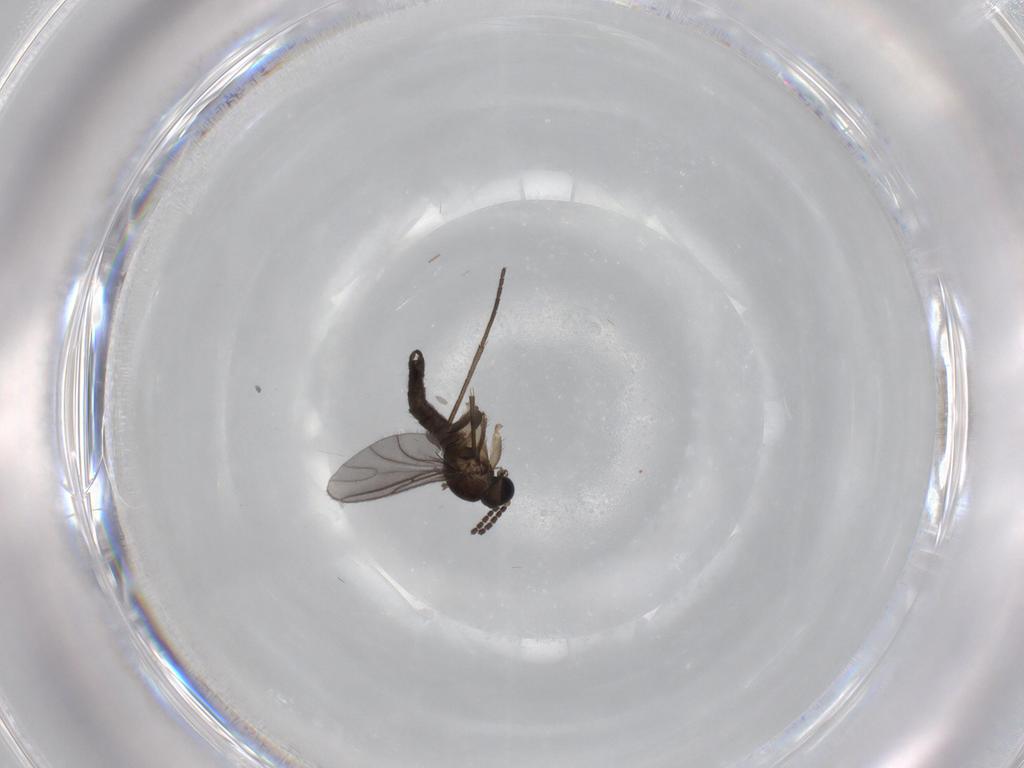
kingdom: Animalia
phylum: Arthropoda
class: Insecta
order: Diptera
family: Sciaridae
